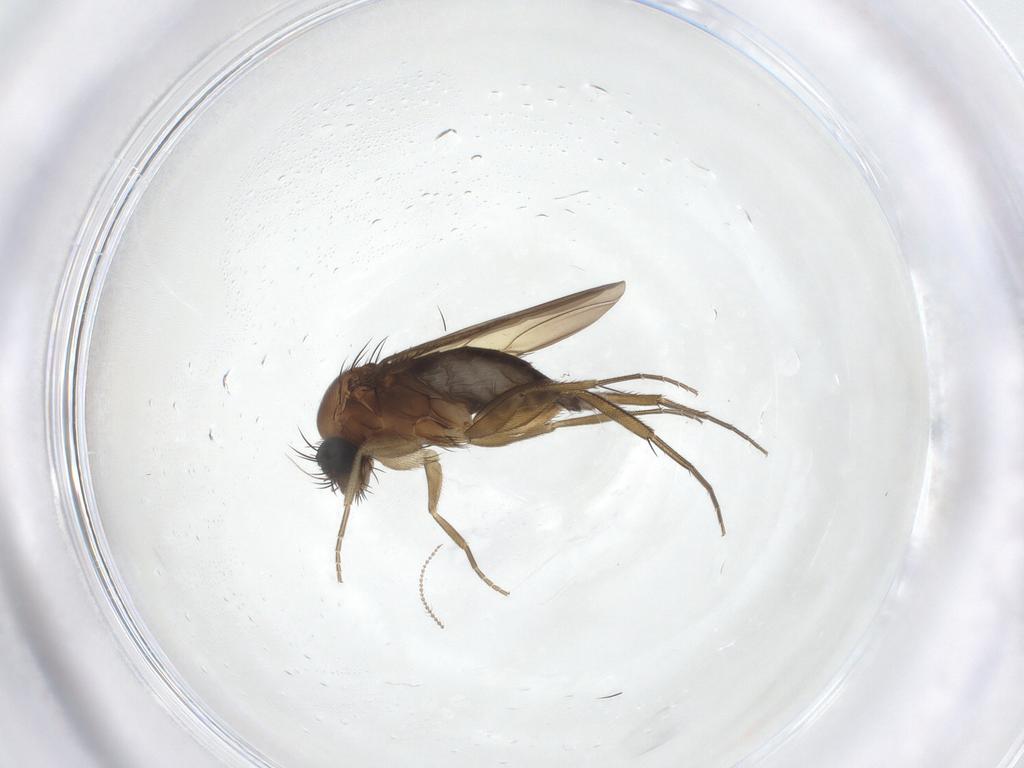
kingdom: Animalia
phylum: Arthropoda
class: Insecta
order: Diptera
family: Phoridae
